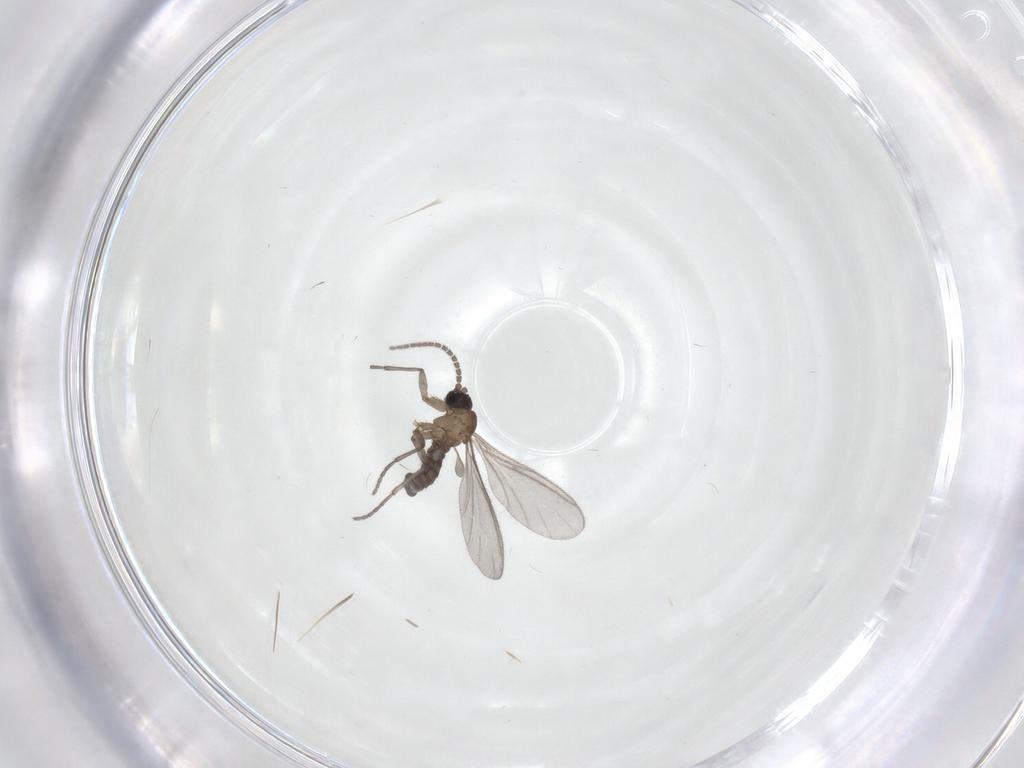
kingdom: Animalia
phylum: Arthropoda
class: Insecta
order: Diptera
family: Sciaridae
